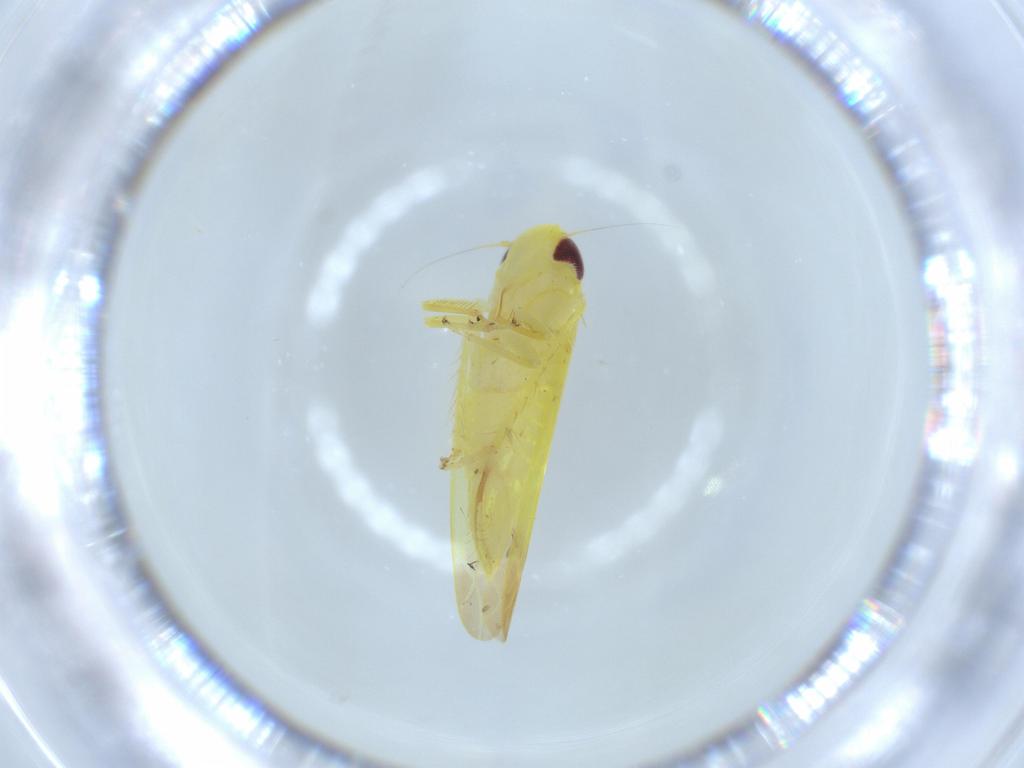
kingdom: Animalia
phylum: Arthropoda
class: Insecta
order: Hemiptera
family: Cicadellidae
